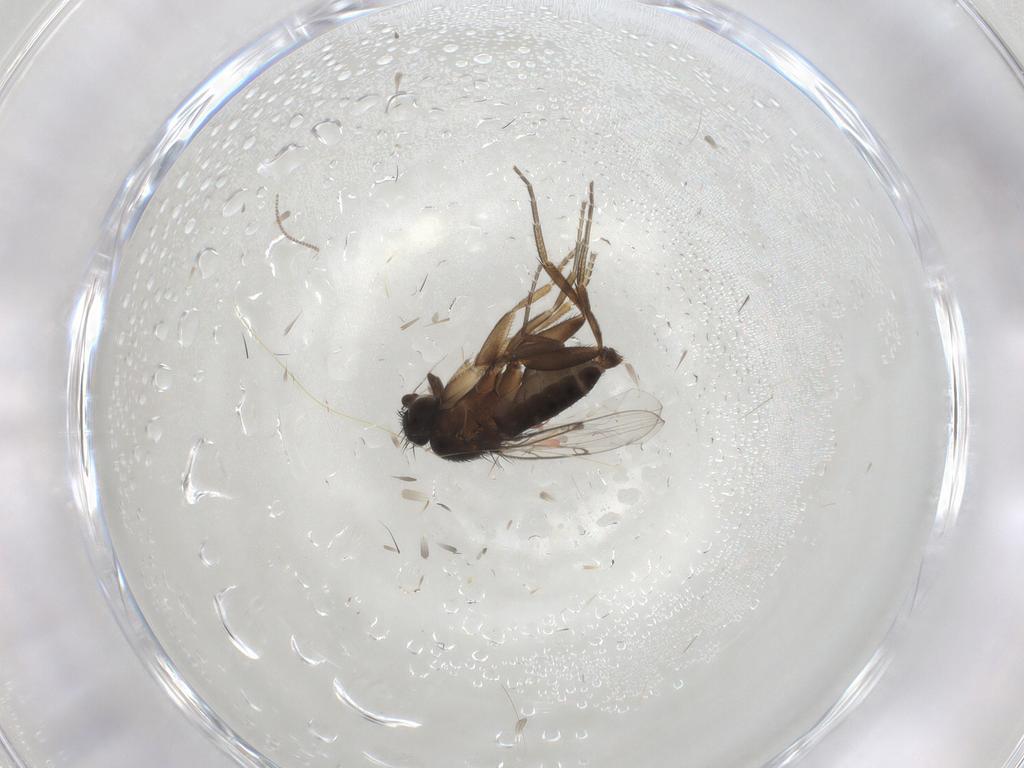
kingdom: Animalia
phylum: Arthropoda
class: Insecta
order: Diptera
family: Phoridae
